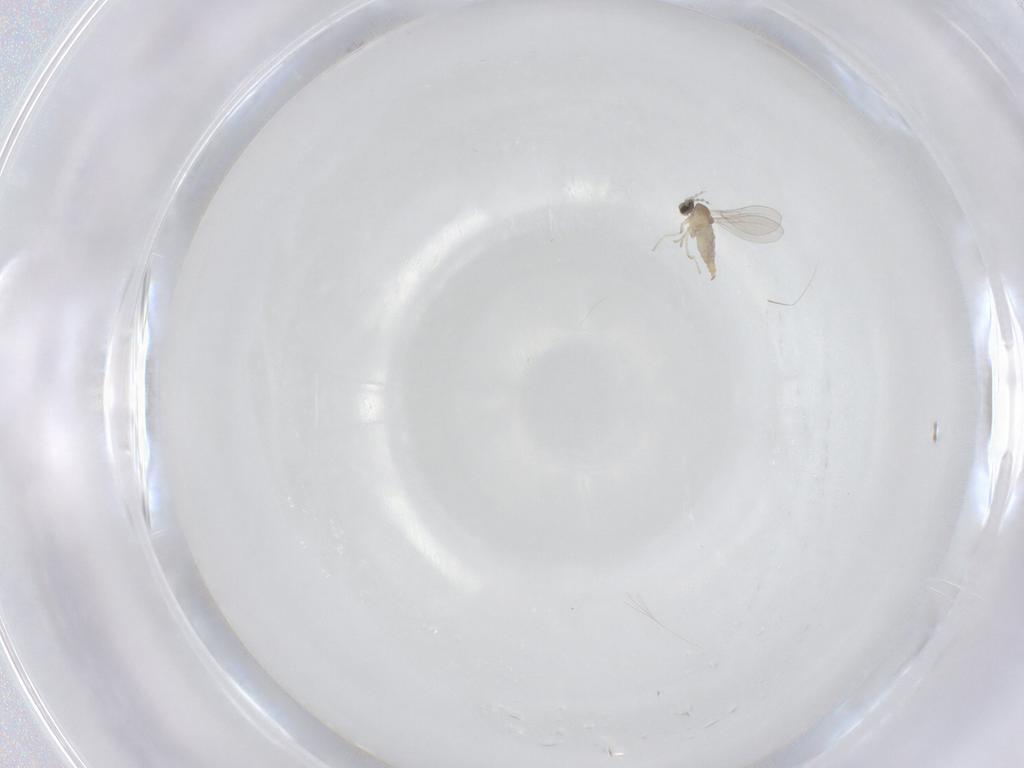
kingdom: Animalia
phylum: Arthropoda
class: Insecta
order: Diptera
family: Cecidomyiidae
